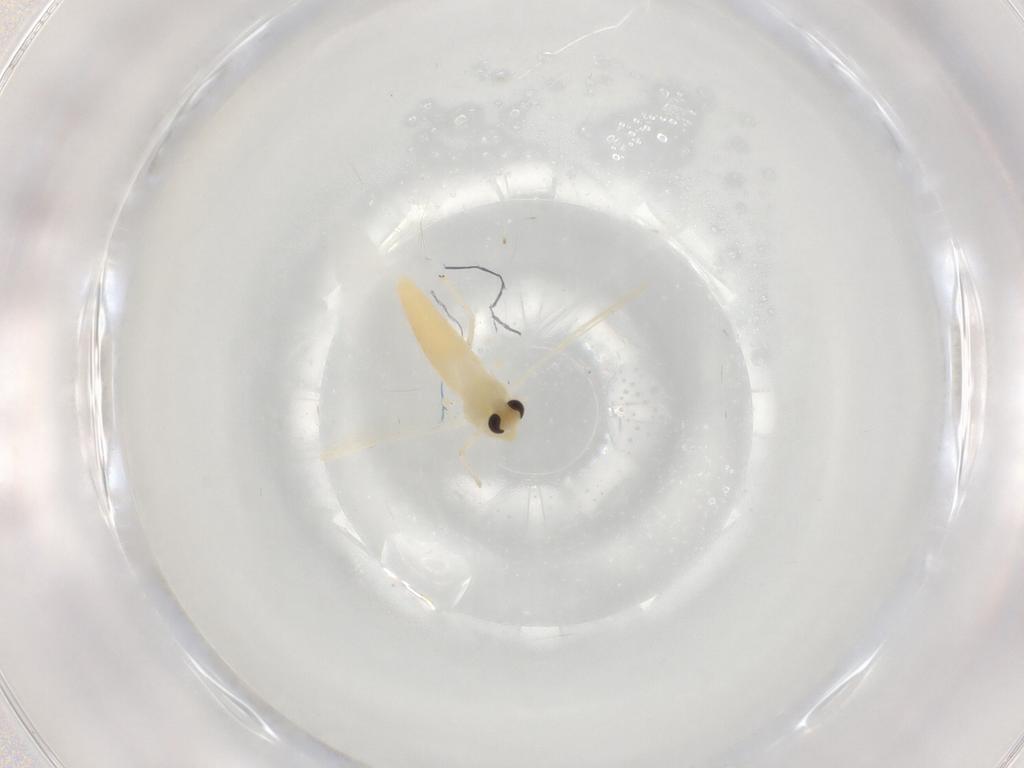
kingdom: Animalia
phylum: Arthropoda
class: Insecta
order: Diptera
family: Chironomidae
